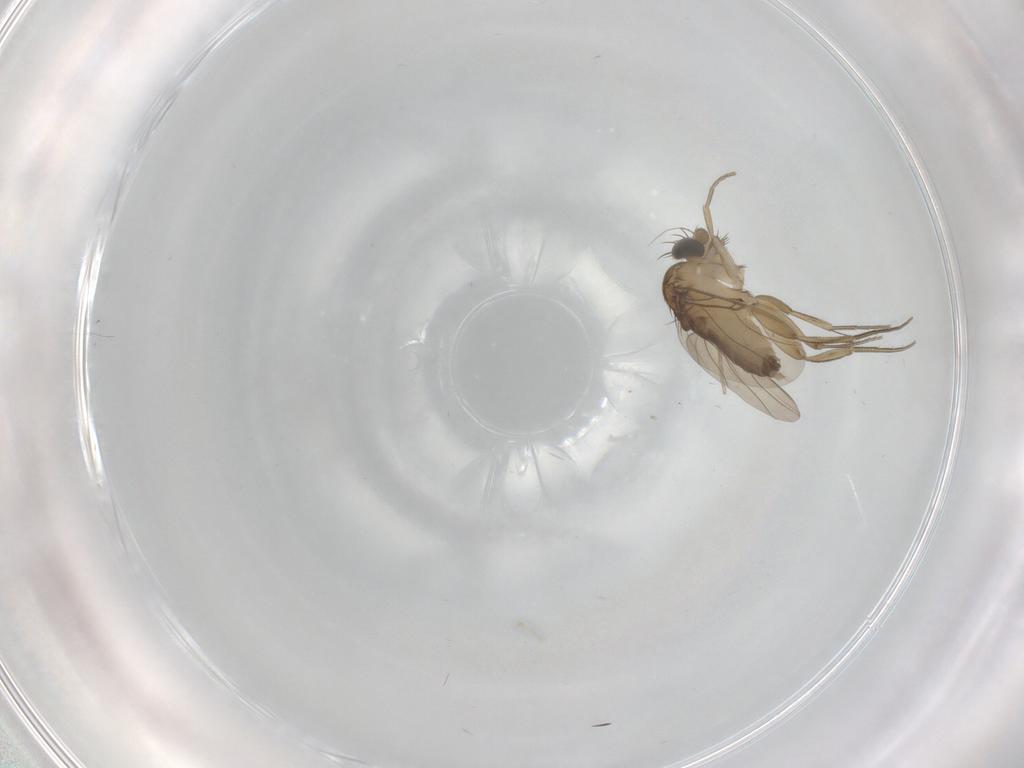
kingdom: Animalia
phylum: Arthropoda
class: Insecta
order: Diptera
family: Phoridae
